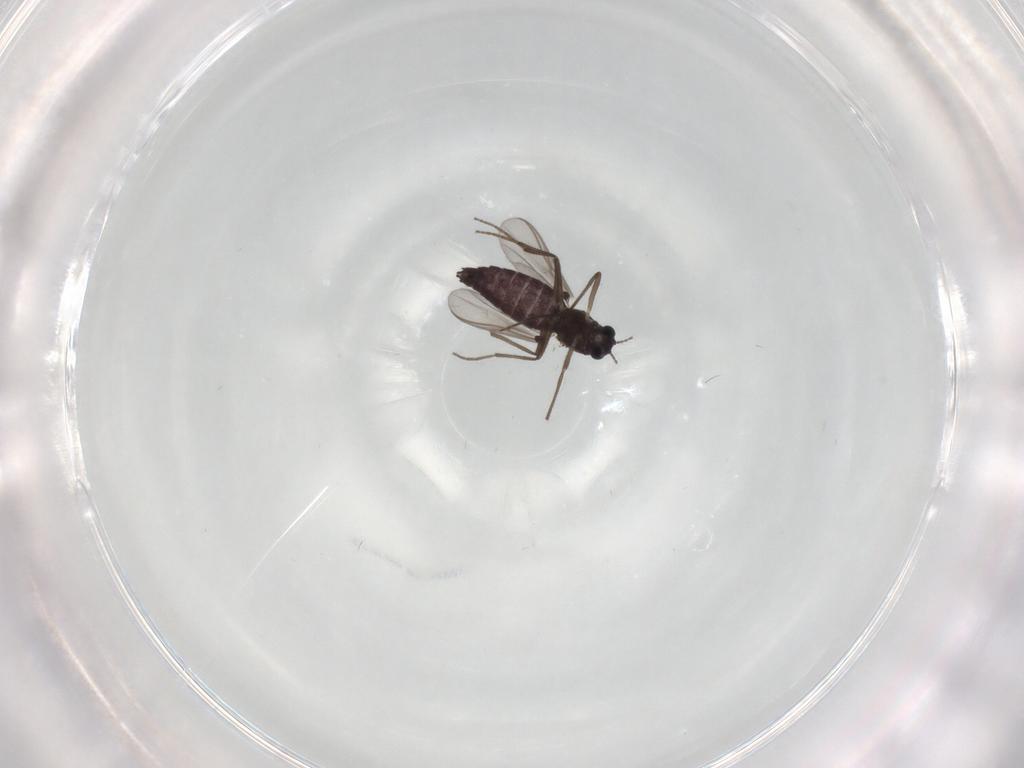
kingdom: Animalia
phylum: Arthropoda
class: Insecta
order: Diptera
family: Chironomidae
